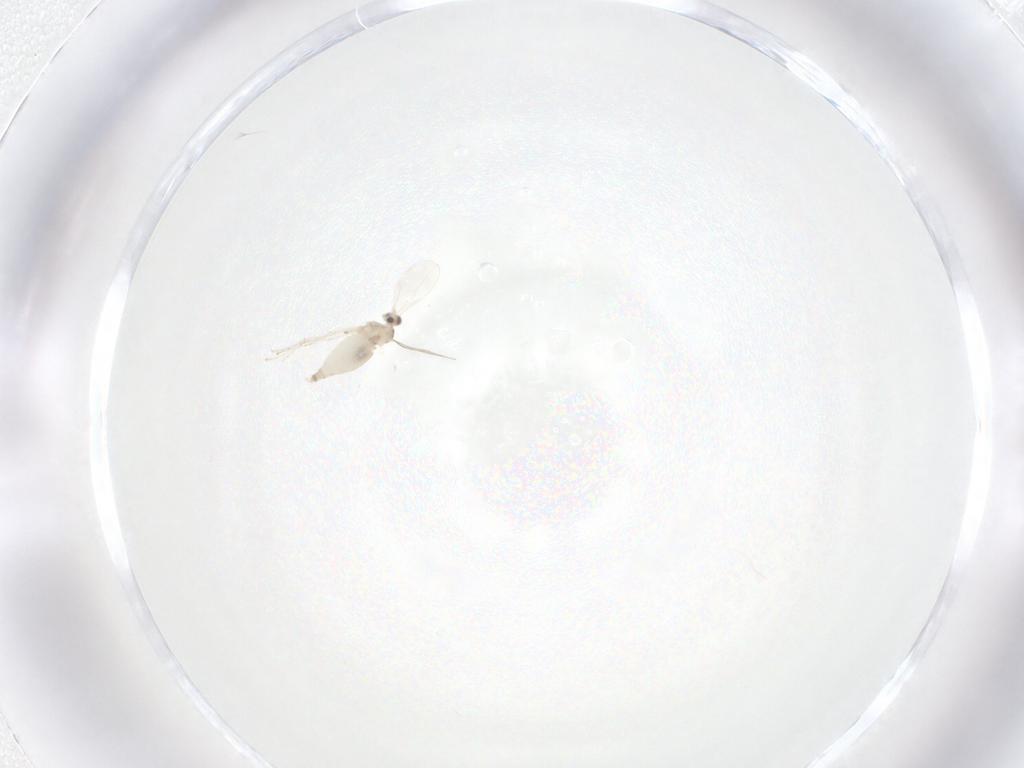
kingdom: Animalia
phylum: Arthropoda
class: Insecta
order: Diptera
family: Cecidomyiidae
